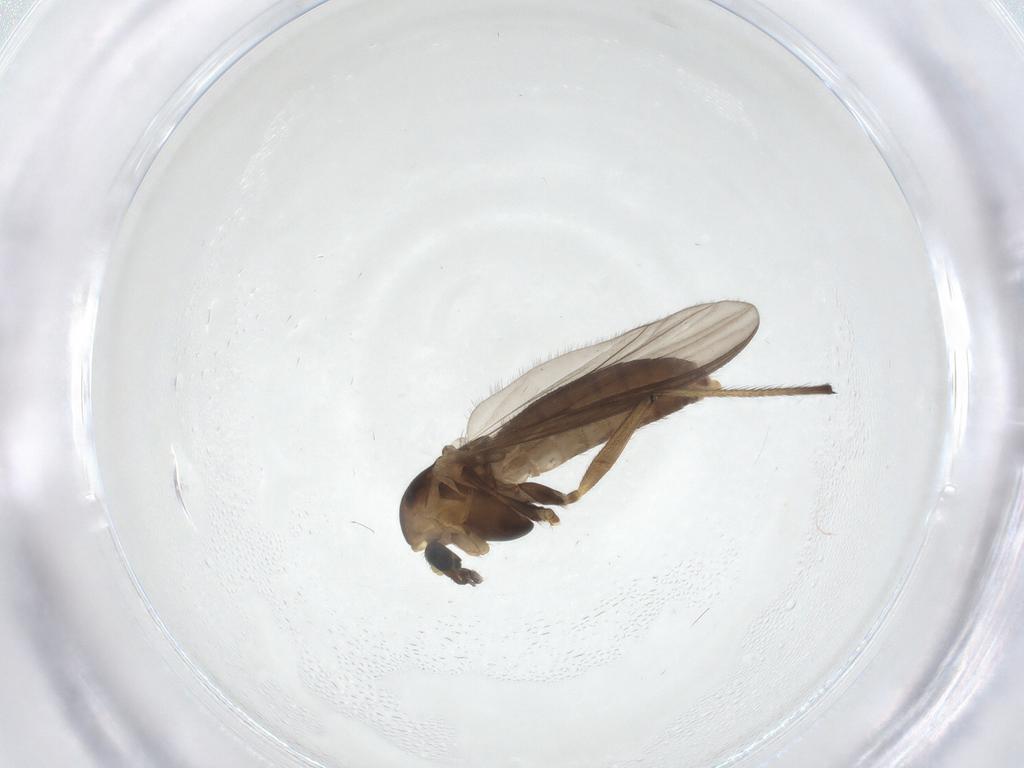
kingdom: Animalia
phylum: Arthropoda
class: Insecta
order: Diptera
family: Chironomidae
